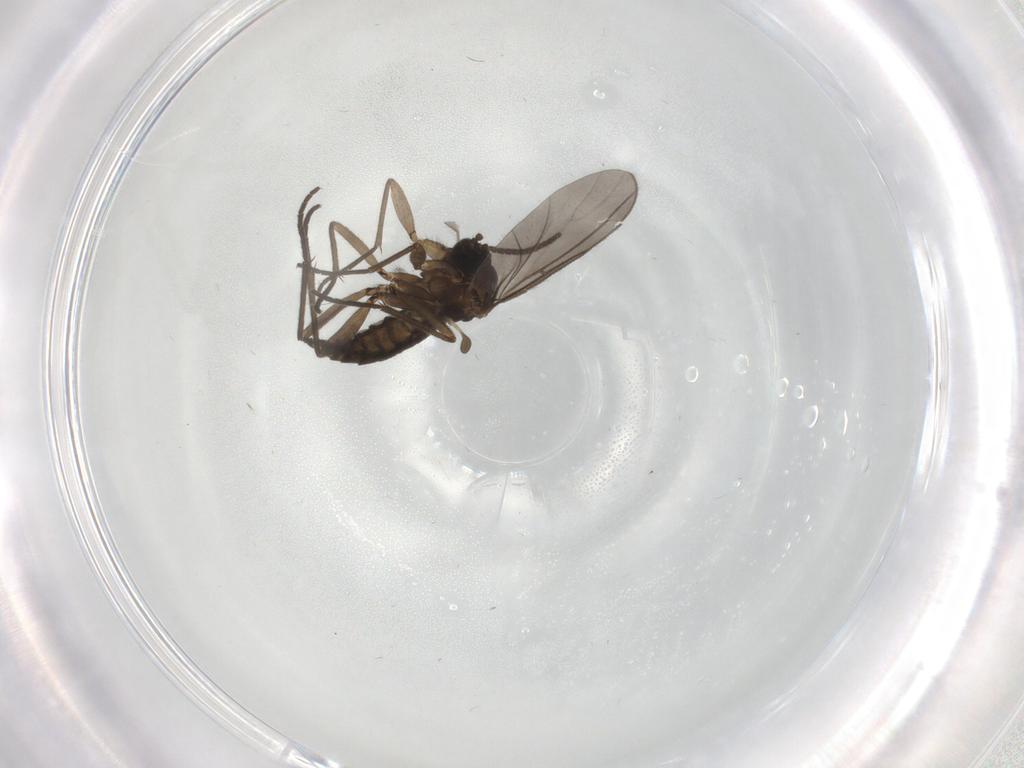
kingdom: Animalia
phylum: Arthropoda
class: Insecta
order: Diptera
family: Sciaridae
